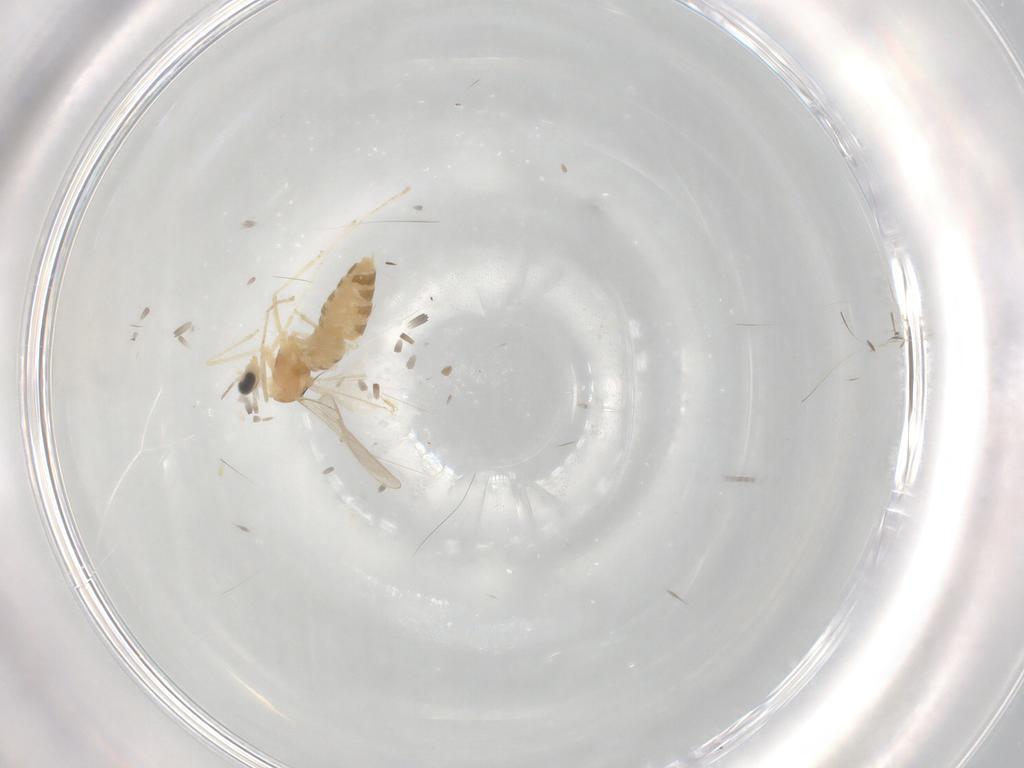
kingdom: Animalia
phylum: Arthropoda
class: Insecta
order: Diptera
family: Cecidomyiidae
